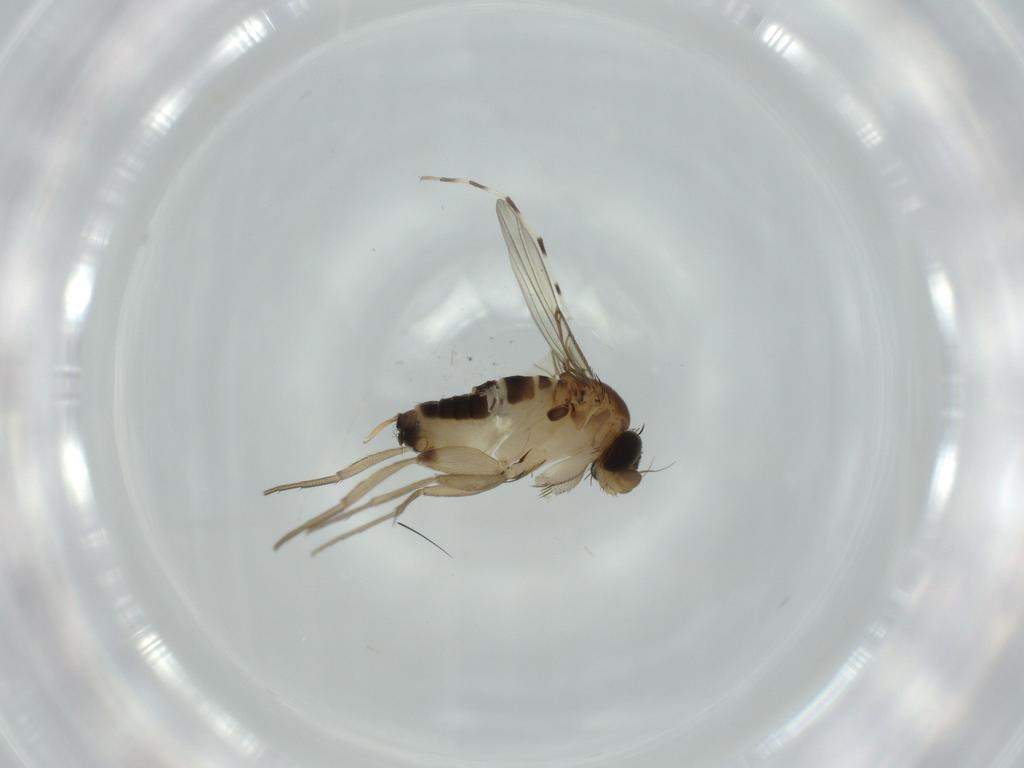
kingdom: Animalia
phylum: Arthropoda
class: Insecta
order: Diptera
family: Chironomidae
